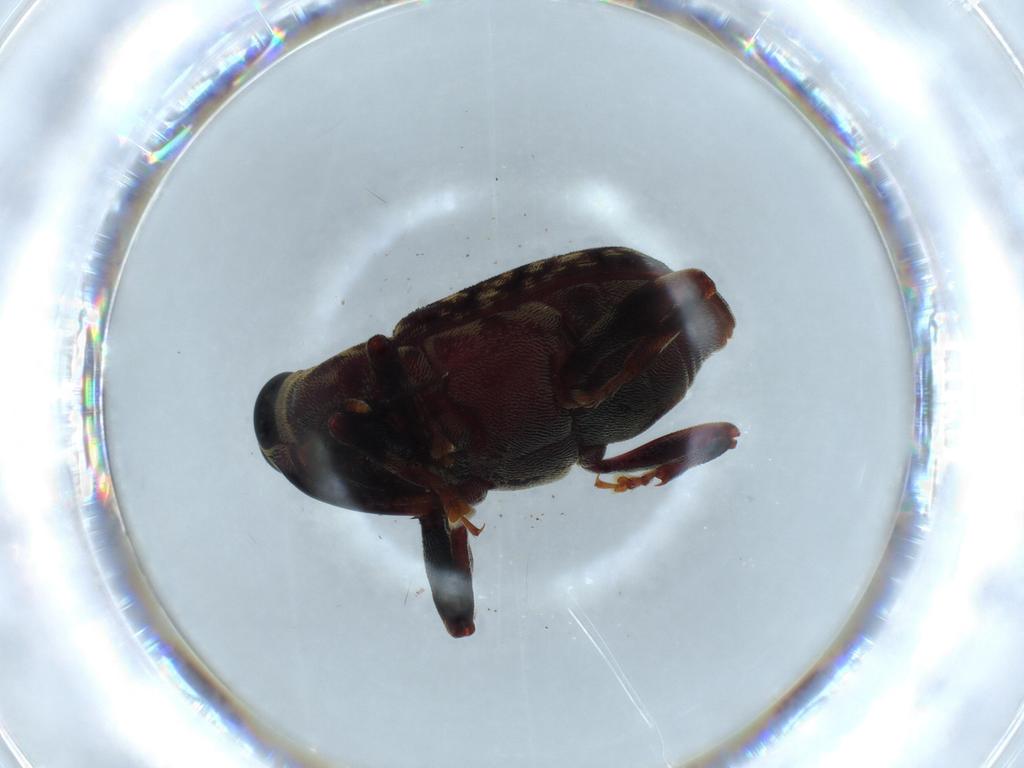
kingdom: Animalia
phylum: Arthropoda
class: Insecta
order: Coleoptera
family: Curculionidae
